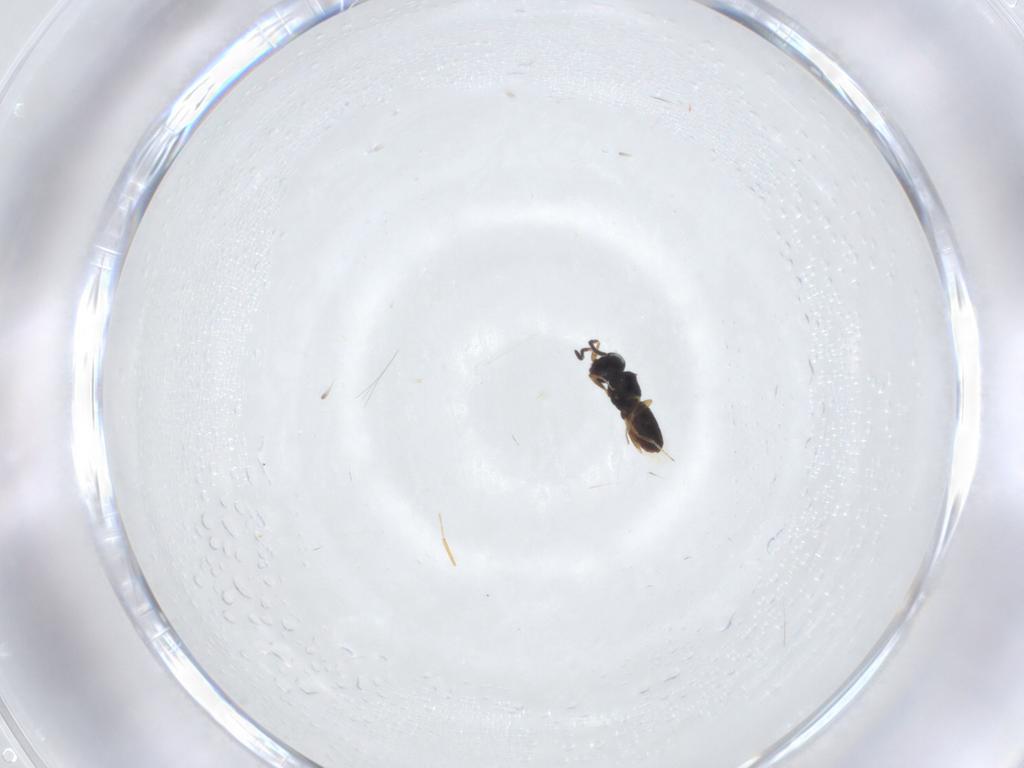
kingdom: Animalia
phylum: Arthropoda
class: Insecta
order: Hymenoptera
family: Scelionidae
